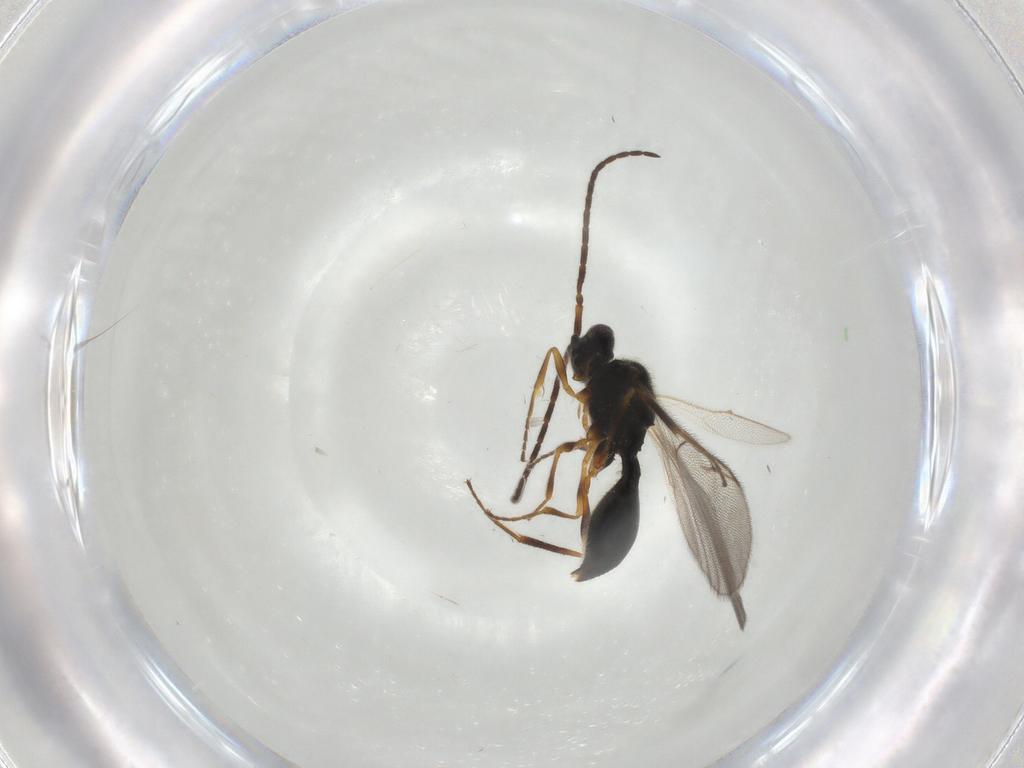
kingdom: Animalia
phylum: Arthropoda
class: Insecta
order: Hymenoptera
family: Diapriidae
